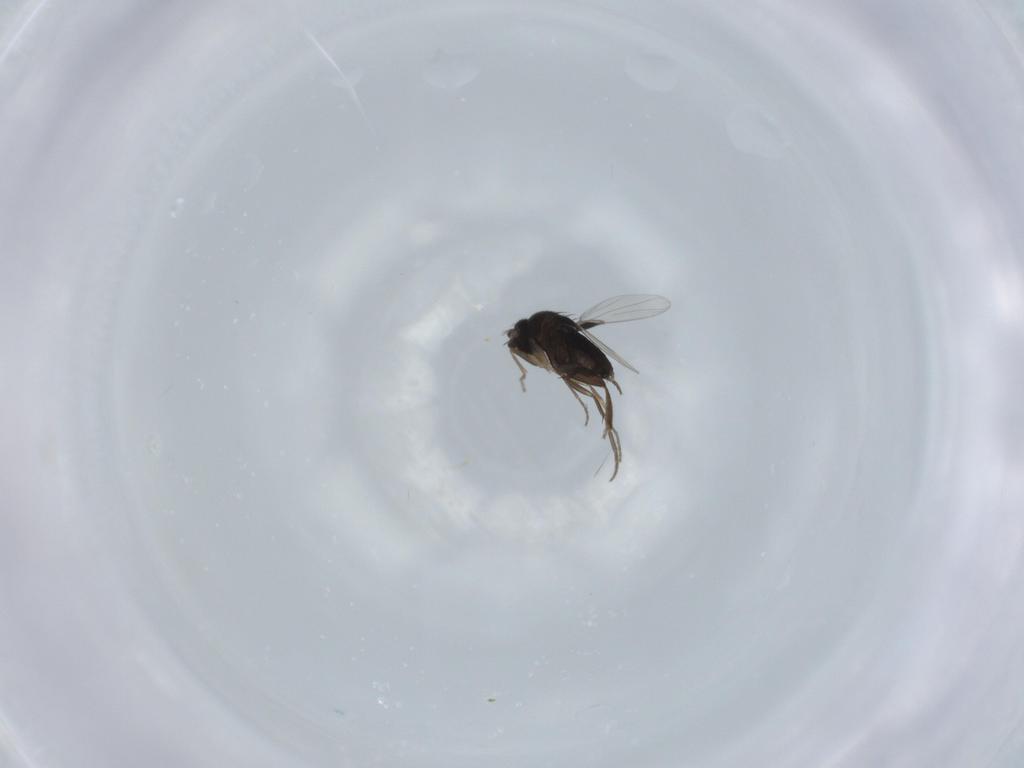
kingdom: Animalia
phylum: Arthropoda
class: Insecta
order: Diptera
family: Phoridae
